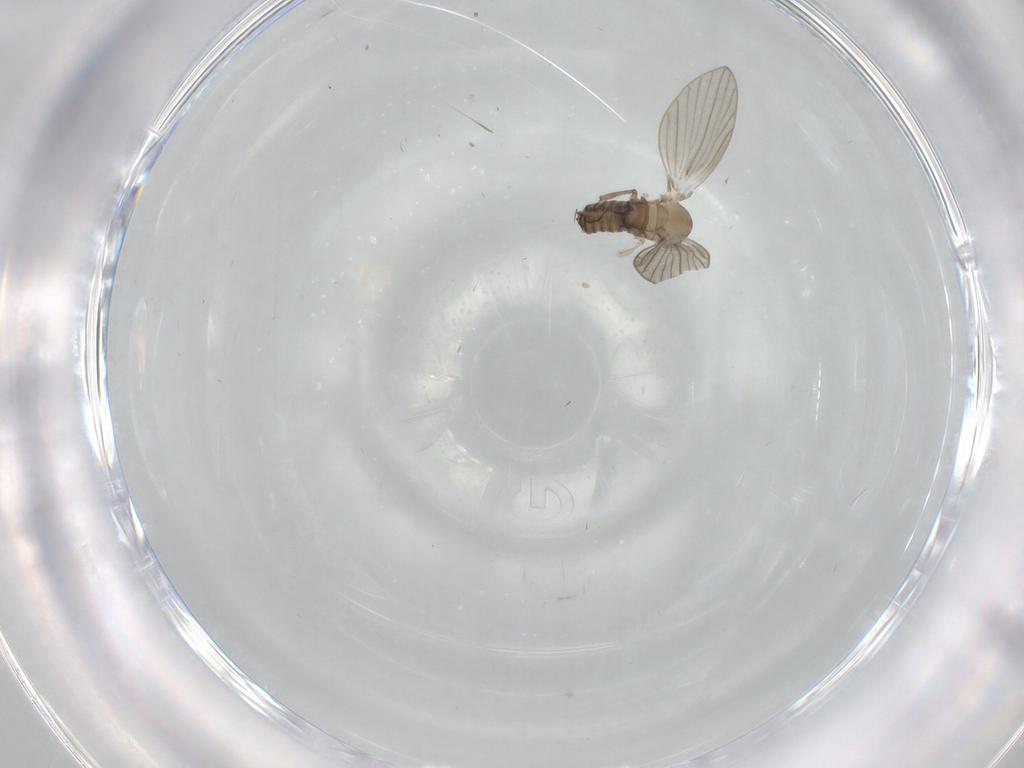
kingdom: Animalia
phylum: Arthropoda
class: Insecta
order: Diptera
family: Psychodidae
